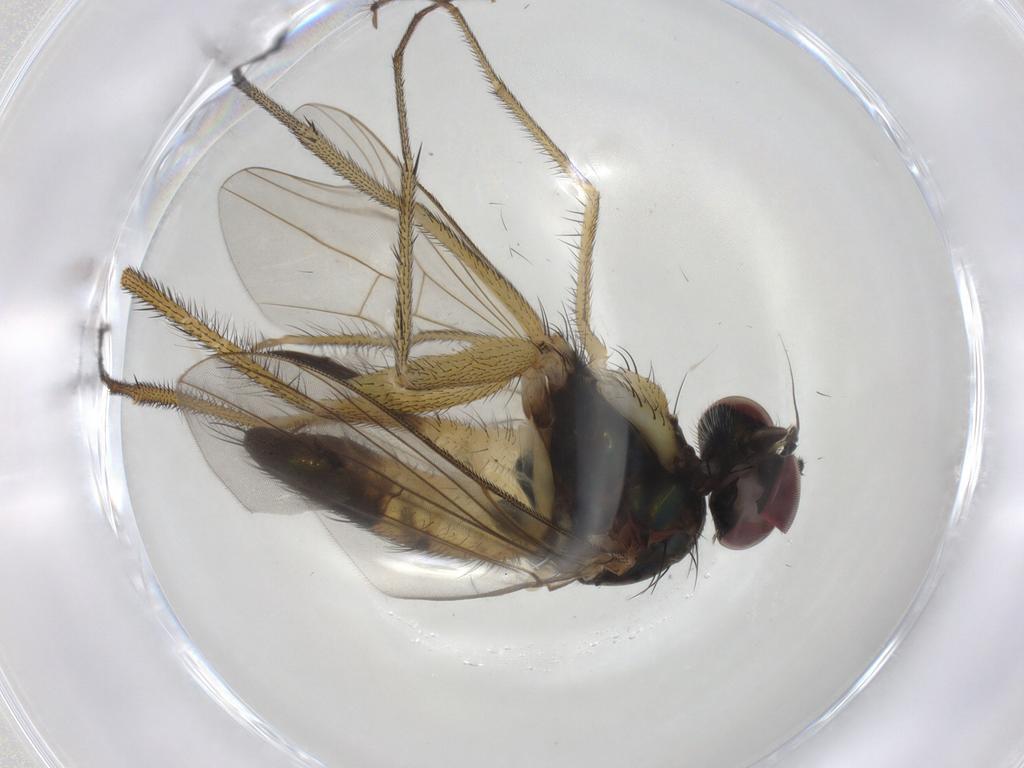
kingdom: Animalia
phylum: Arthropoda
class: Insecta
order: Diptera
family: Dolichopodidae
